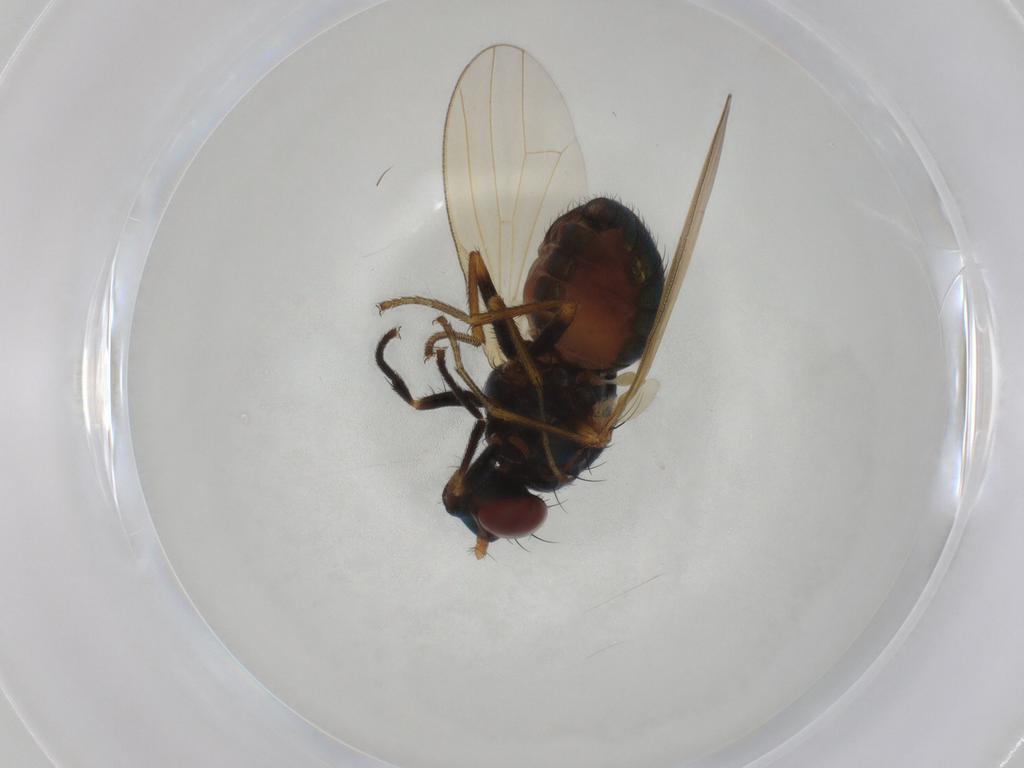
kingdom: Animalia
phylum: Arthropoda
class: Insecta
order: Diptera
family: Lauxaniidae
